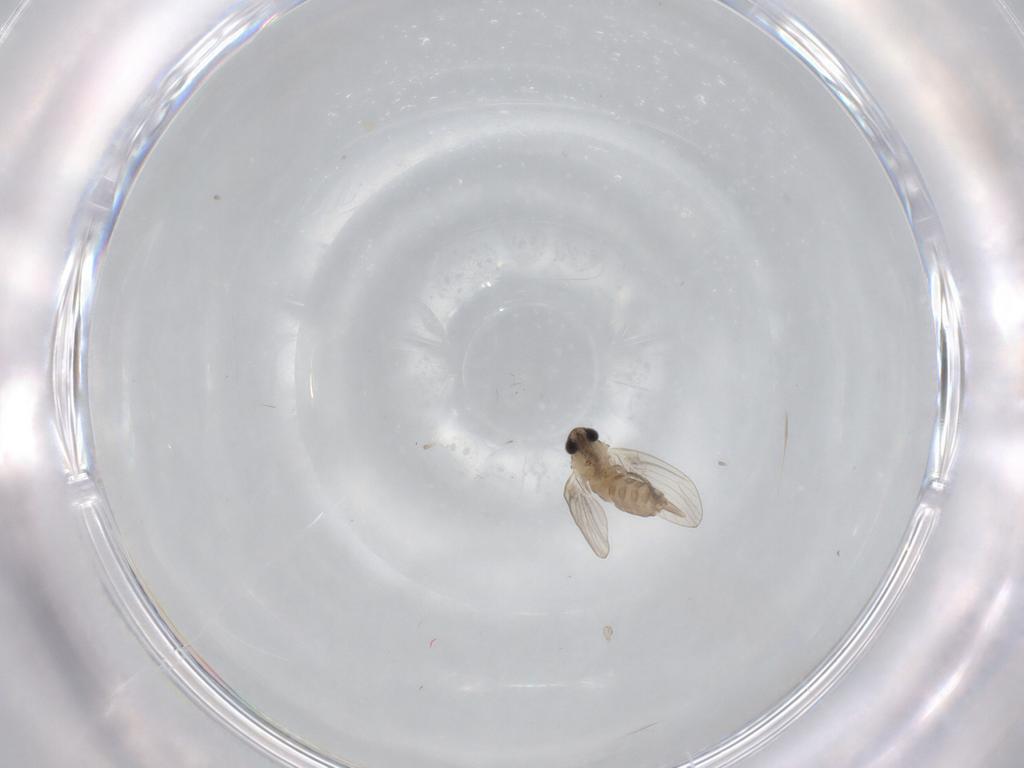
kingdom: Animalia
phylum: Arthropoda
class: Insecta
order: Diptera
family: Psychodidae
